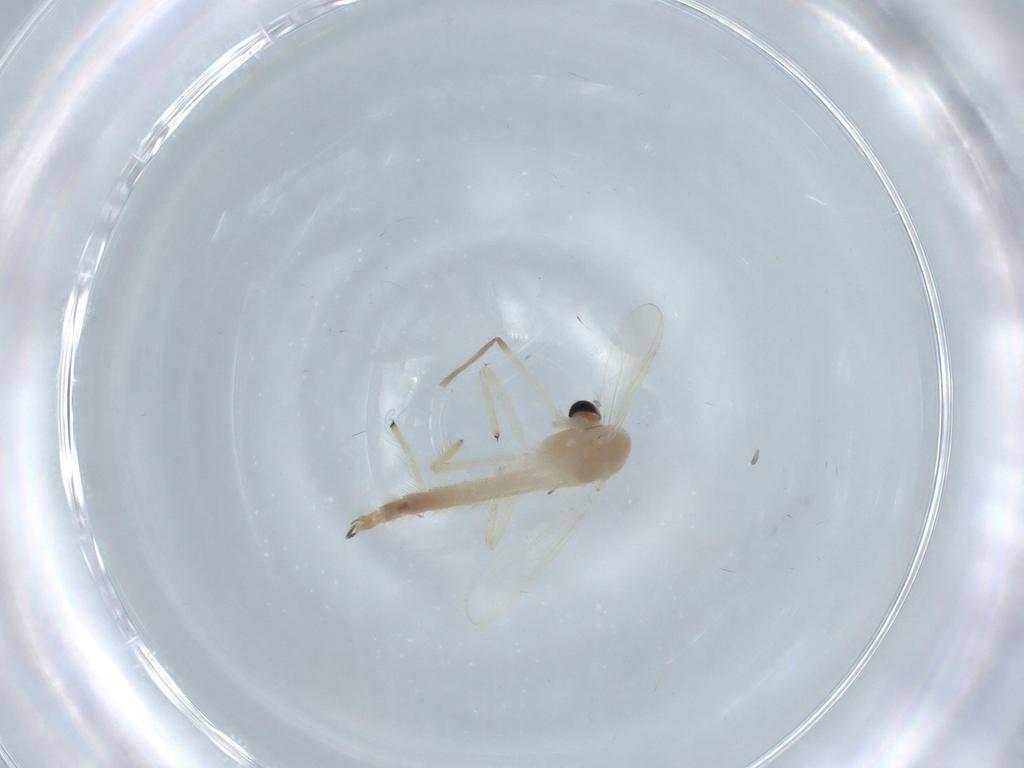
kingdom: Animalia
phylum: Arthropoda
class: Insecta
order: Diptera
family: Chironomidae
